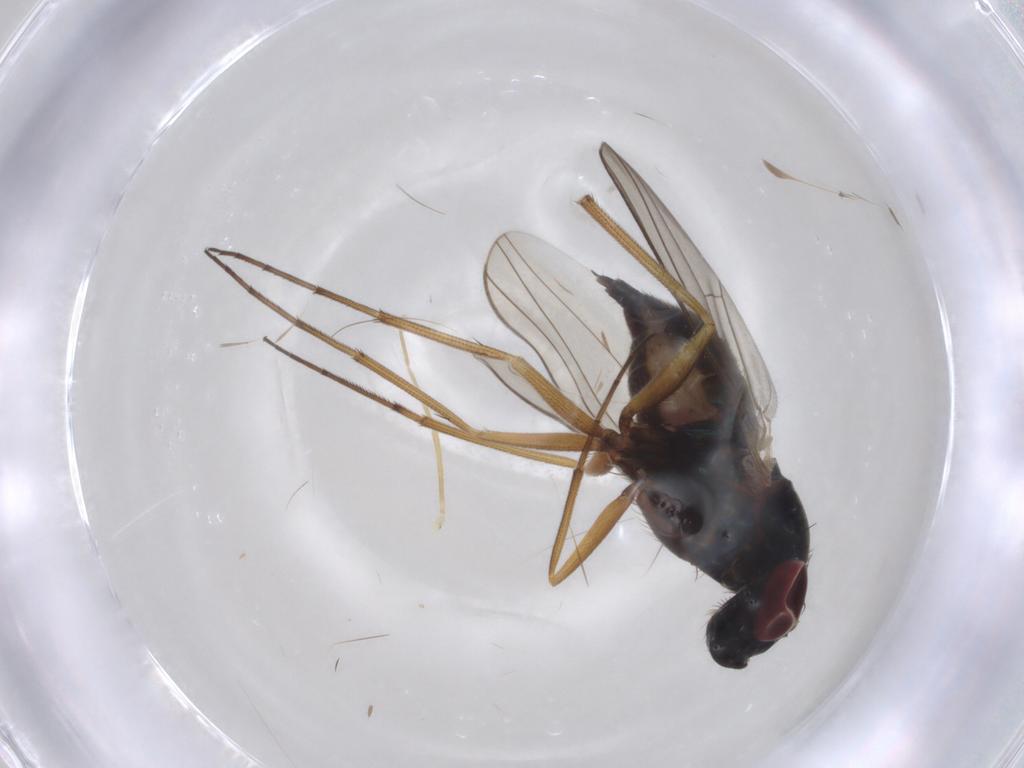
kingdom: Animalia
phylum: Arthropoda
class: Insecta
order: Diptera
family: Dolichopodidae
